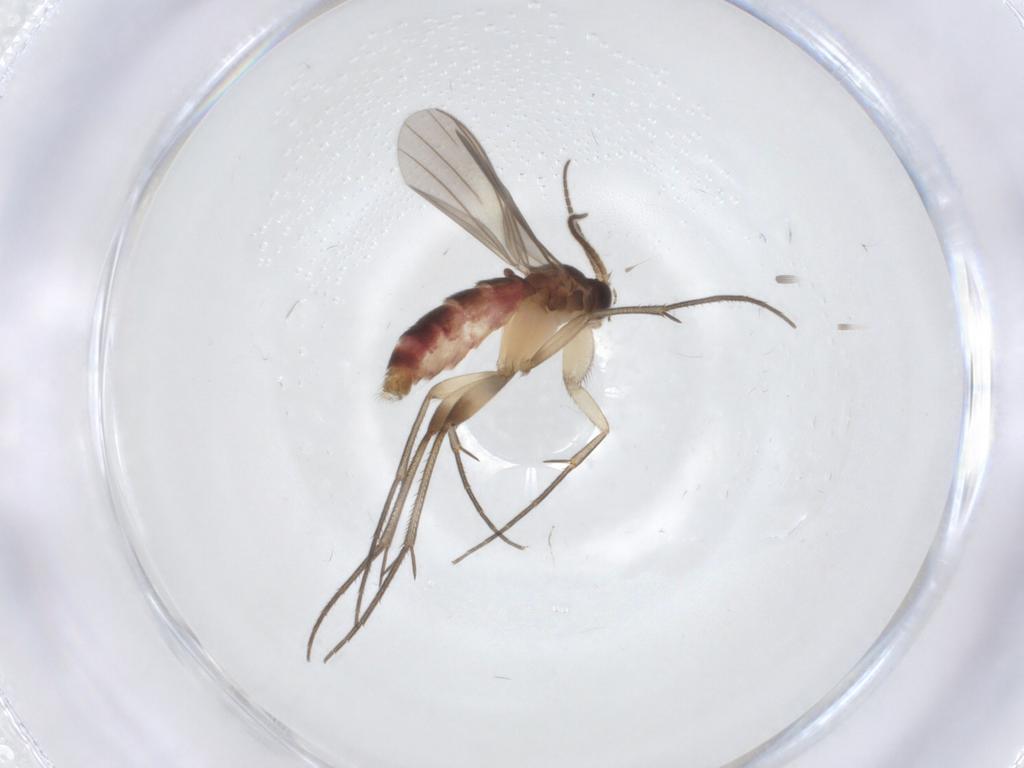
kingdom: Animalia
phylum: Arthropoda
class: Insecta
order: Diptera
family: Mycetophilidae
